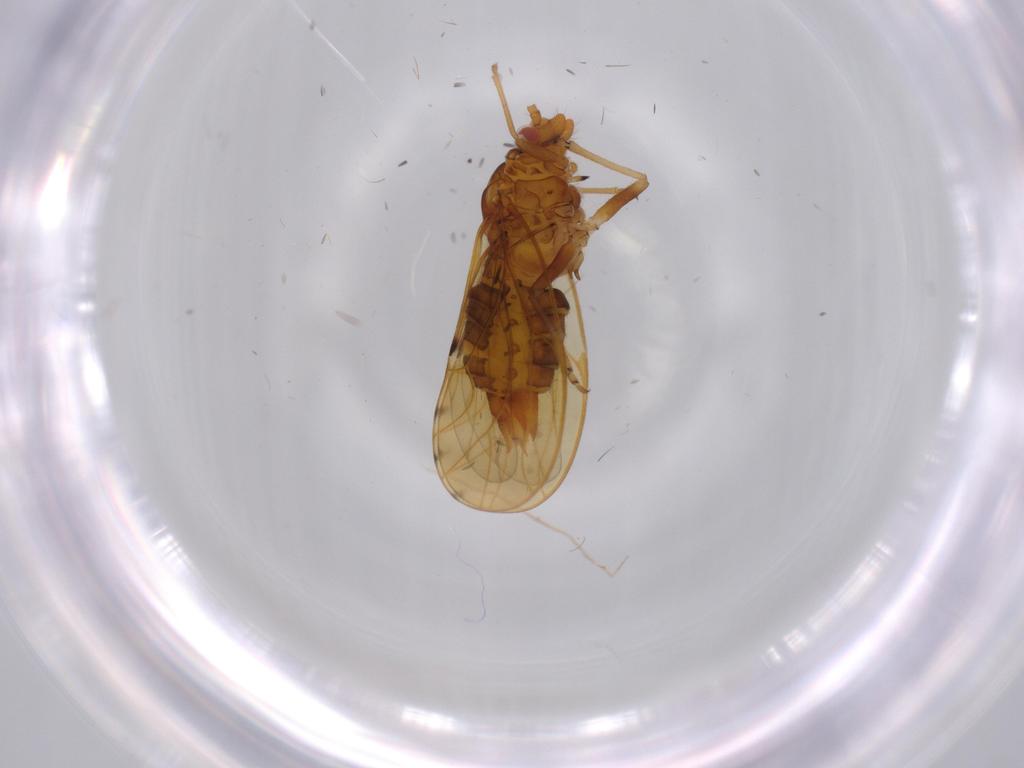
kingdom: Animalia
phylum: Arthropoda
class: Insecta
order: Hemiptera
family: Psylloidea_incertae_sedis
